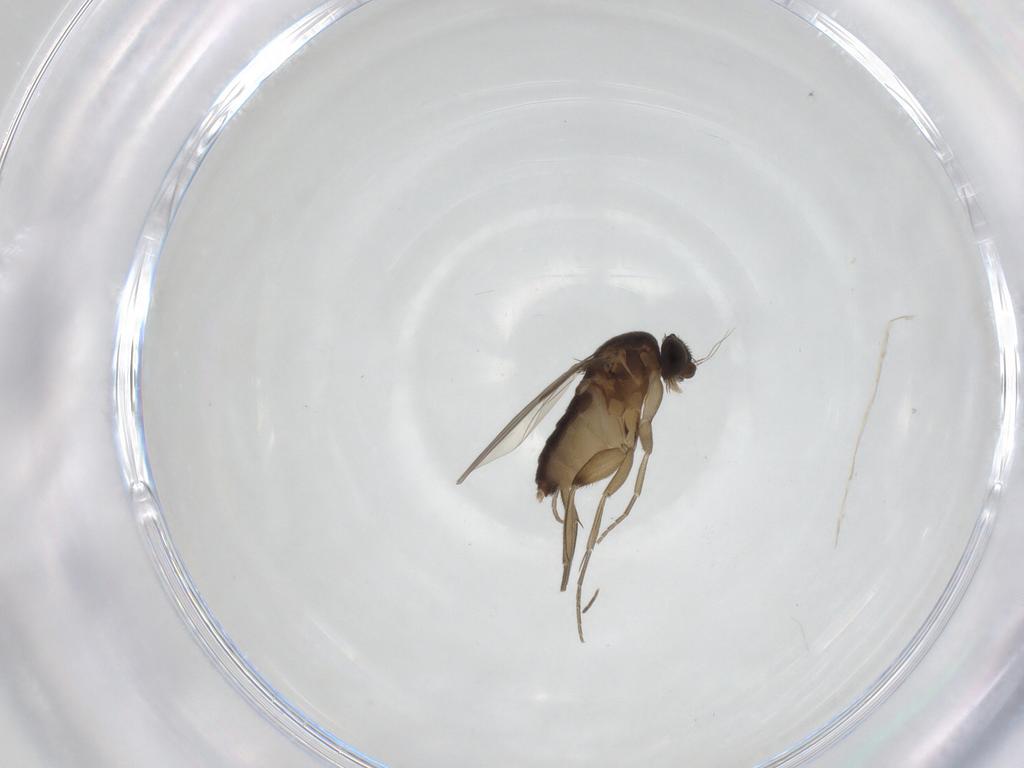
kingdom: Animalia
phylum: Arthropoda
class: Insecta
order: Diptera
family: Phoridae
